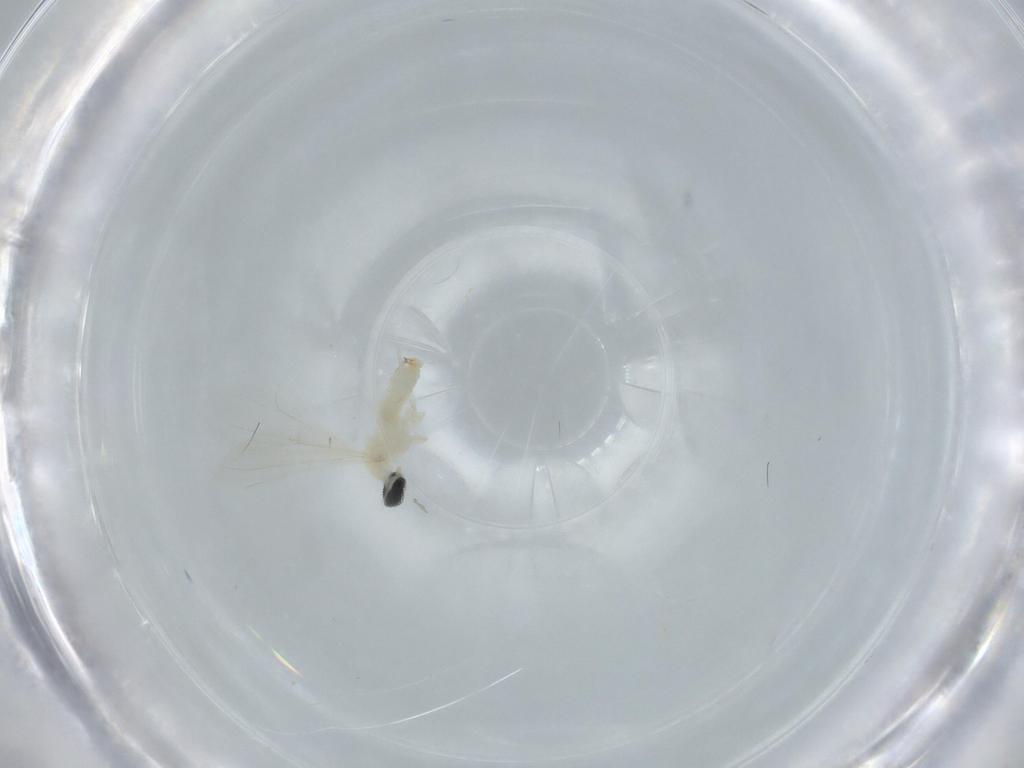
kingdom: Animalia
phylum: Arthropoda
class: Insecta
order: Diptera
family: Cecidomyiidae
